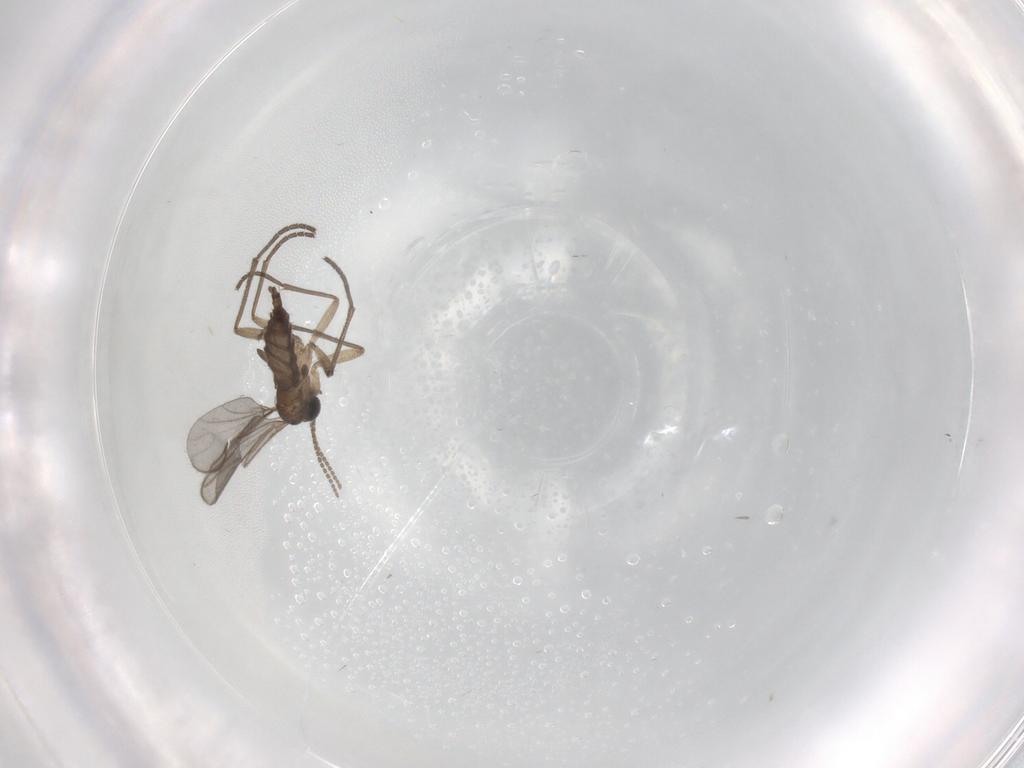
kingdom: Animalia
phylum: Arthropoda
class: Insecta
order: Diptera
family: Sciaridae
